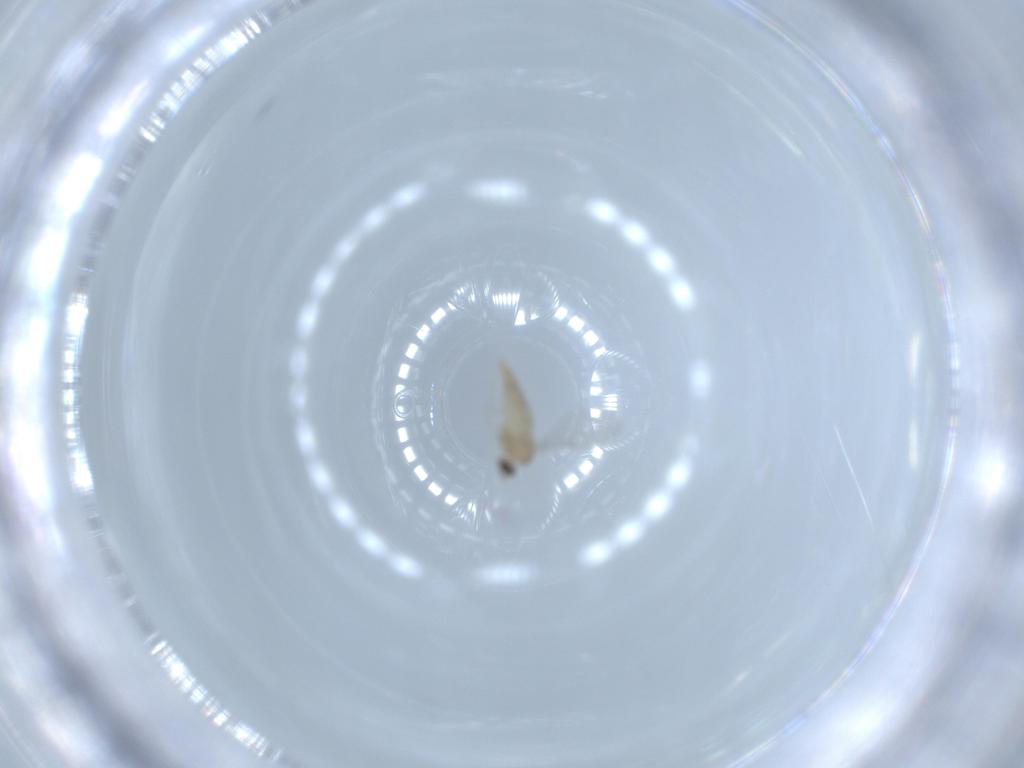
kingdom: Animalia
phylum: Arthropoda
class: Insecta
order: Diptera
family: Cecidomyiidae
